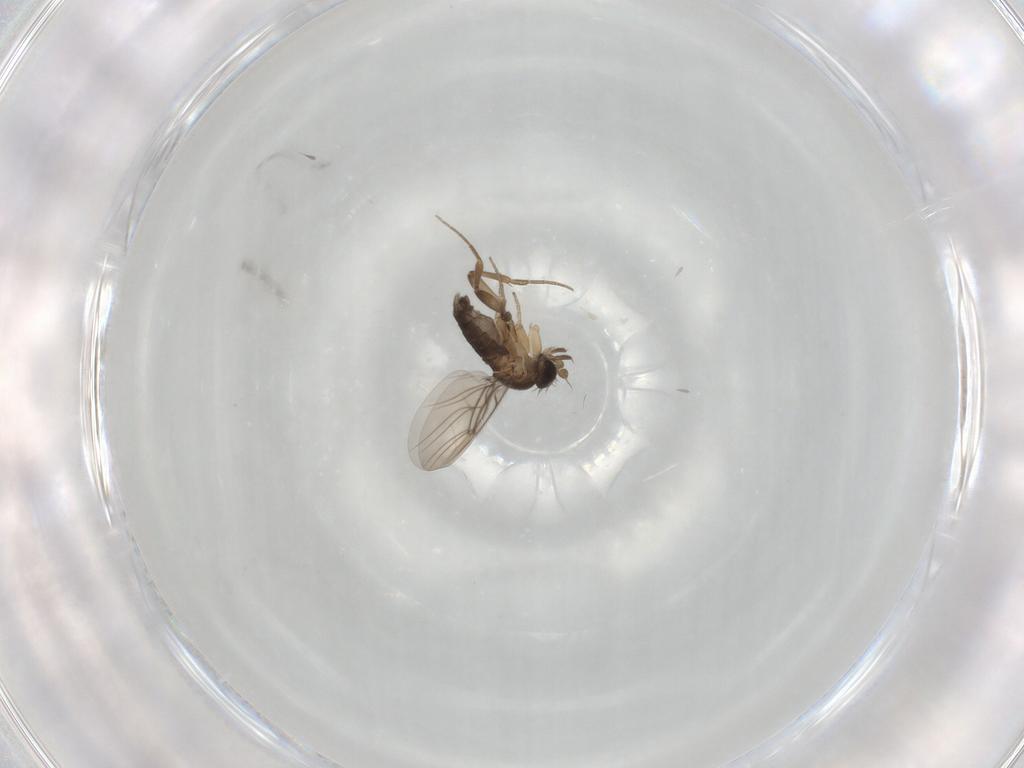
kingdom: Animalia
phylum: Arthropoda
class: Insecta
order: Diptera
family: Phoridae
